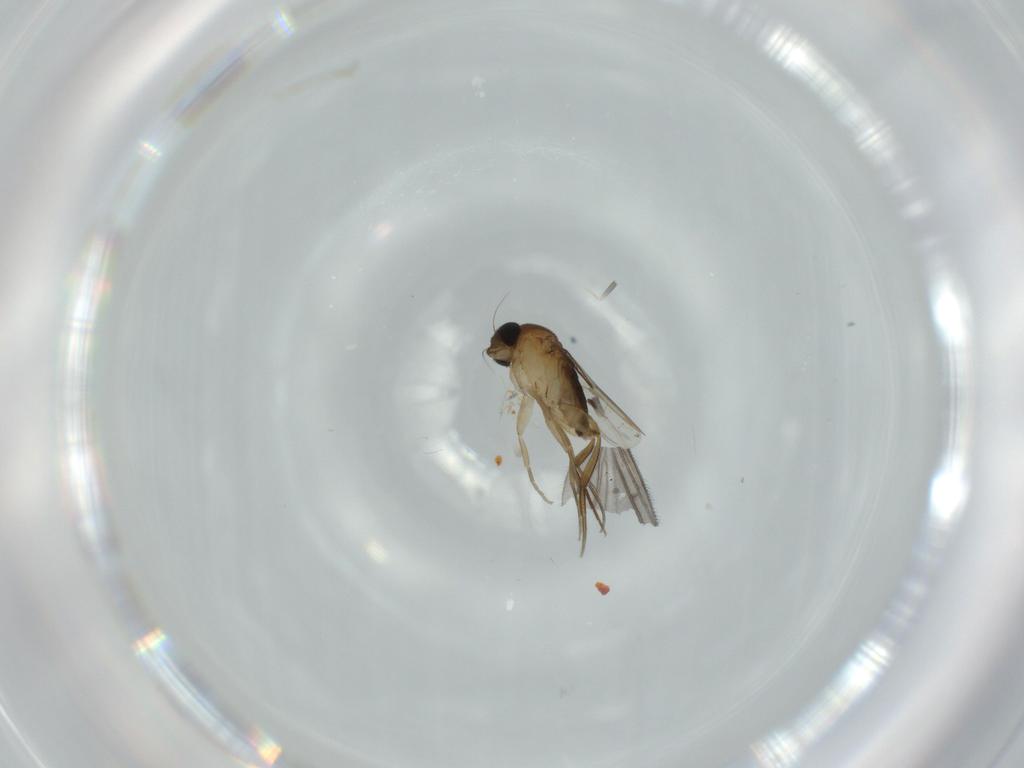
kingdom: Animalia
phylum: Arthropoda
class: Insecta
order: Diptera
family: Phoridae
